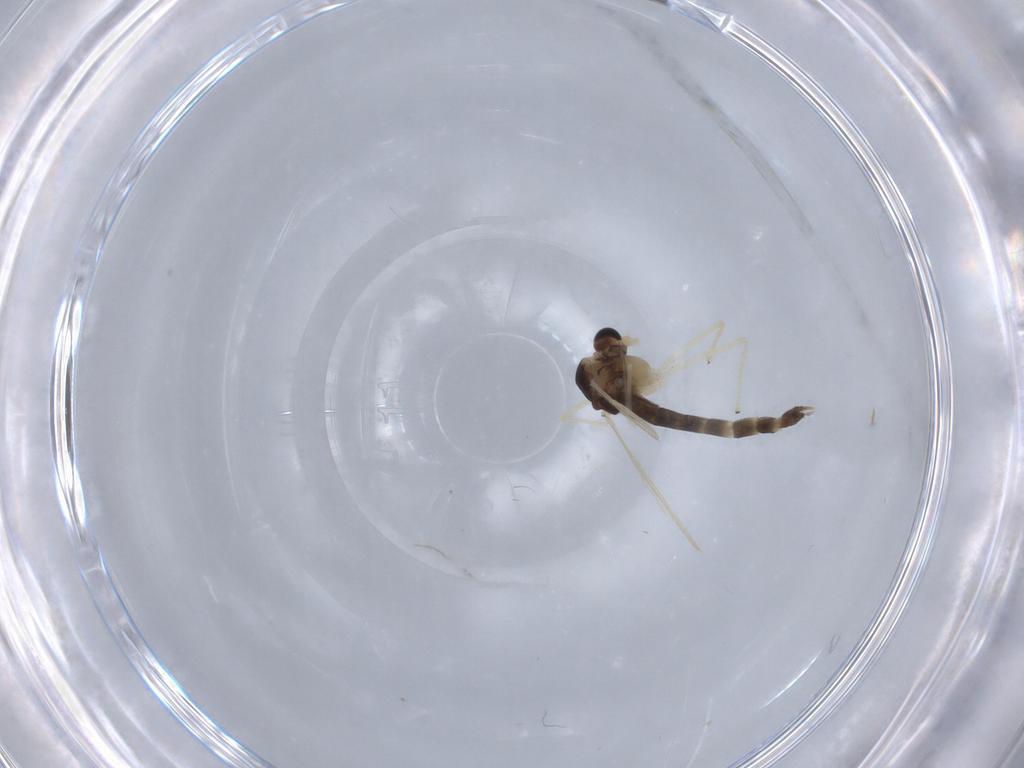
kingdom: Animalia
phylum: Arthropoda
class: Insecta
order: Diptera
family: Chironomidae
